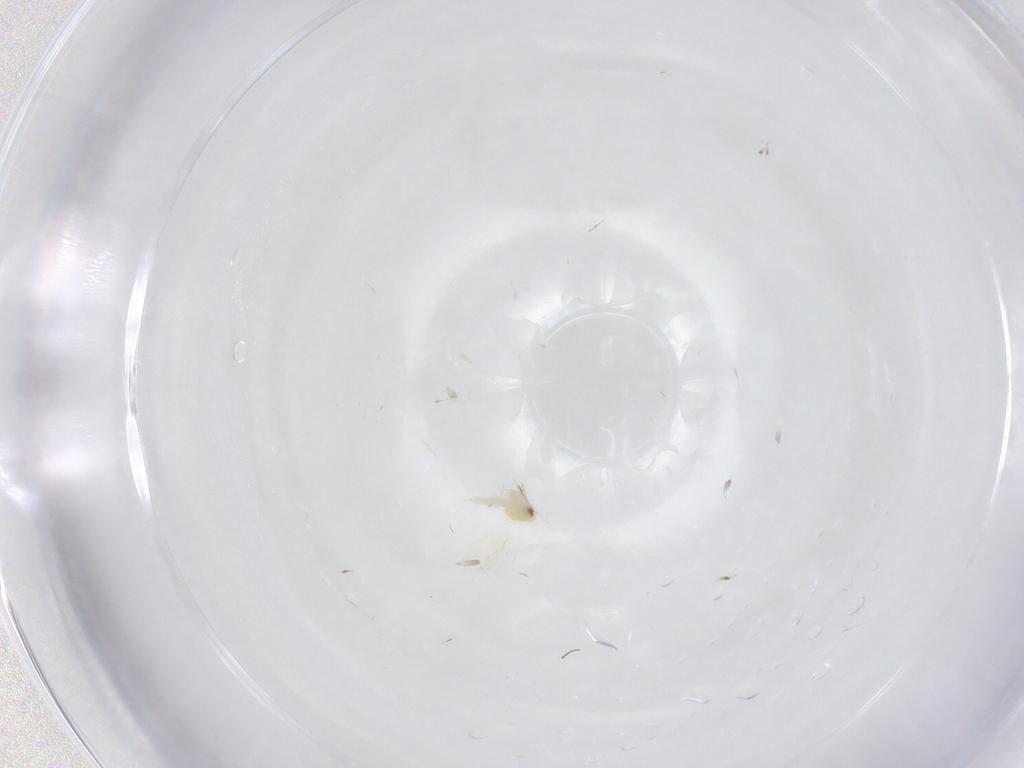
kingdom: Animalia
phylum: Arthropoda
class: Insecta
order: Hemiptera
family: Aleyrodidae
